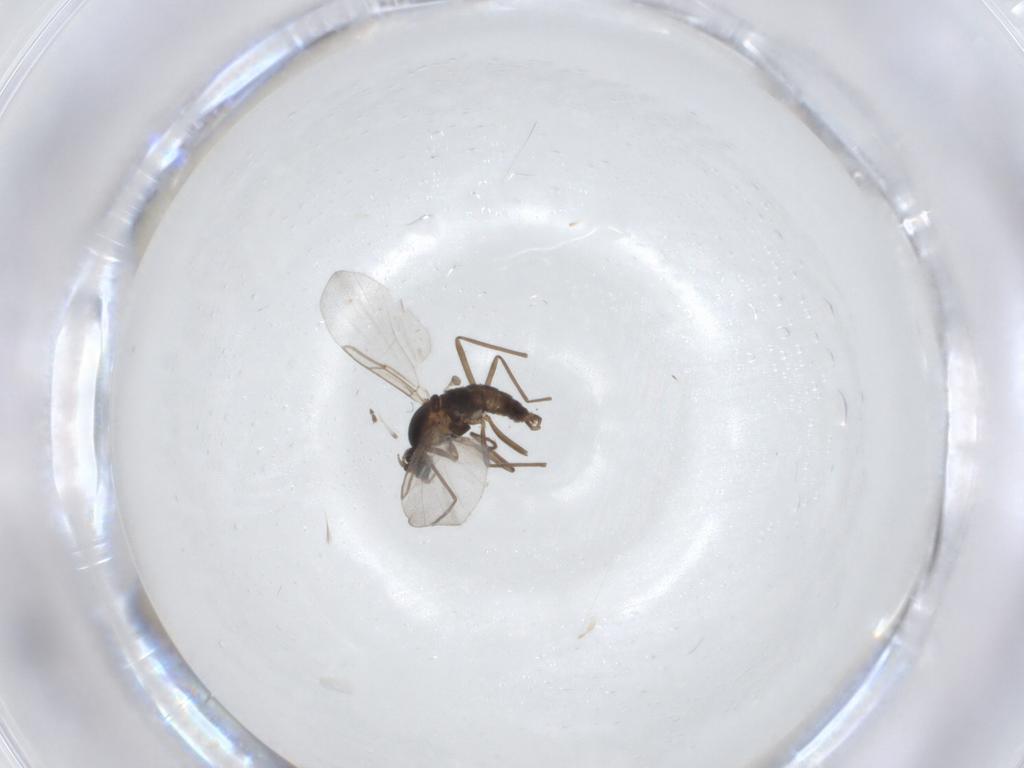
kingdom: Animalia
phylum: Arthropoda
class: Insecta
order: Diptera
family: Cecidomyiidae
